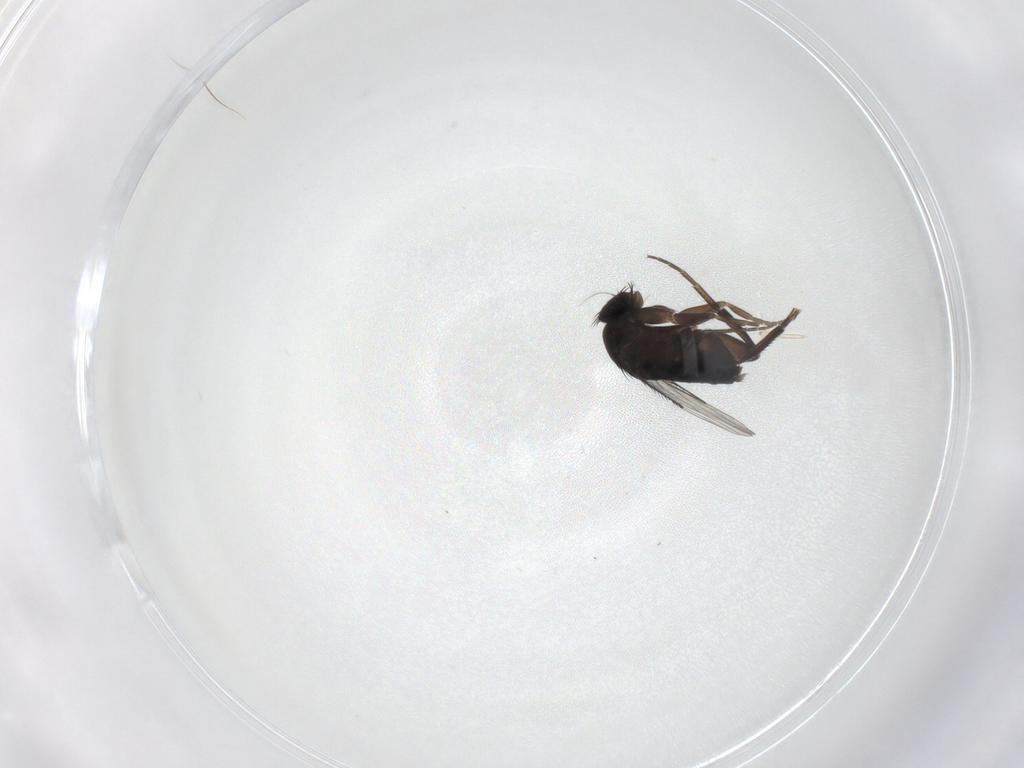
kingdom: Animalia
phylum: Arthropoda
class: Insecta
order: Diptera
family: Phoridae
